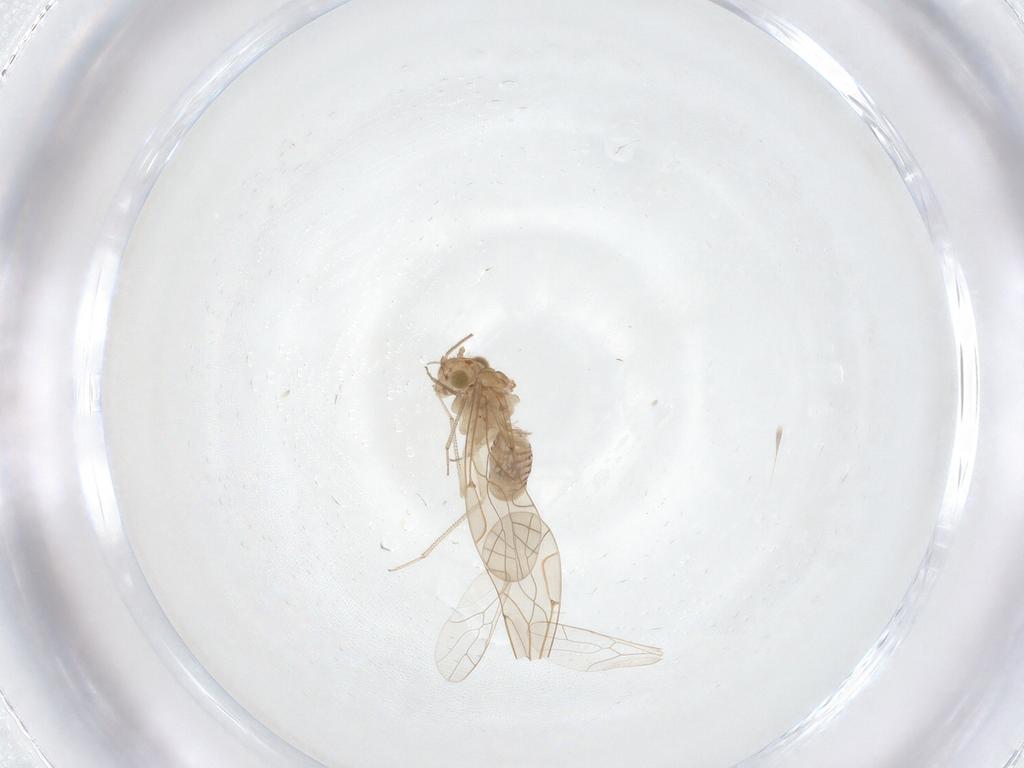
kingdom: Animalia
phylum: Arthropoda
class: Insecta
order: Psocodea
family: Lachesillidae
